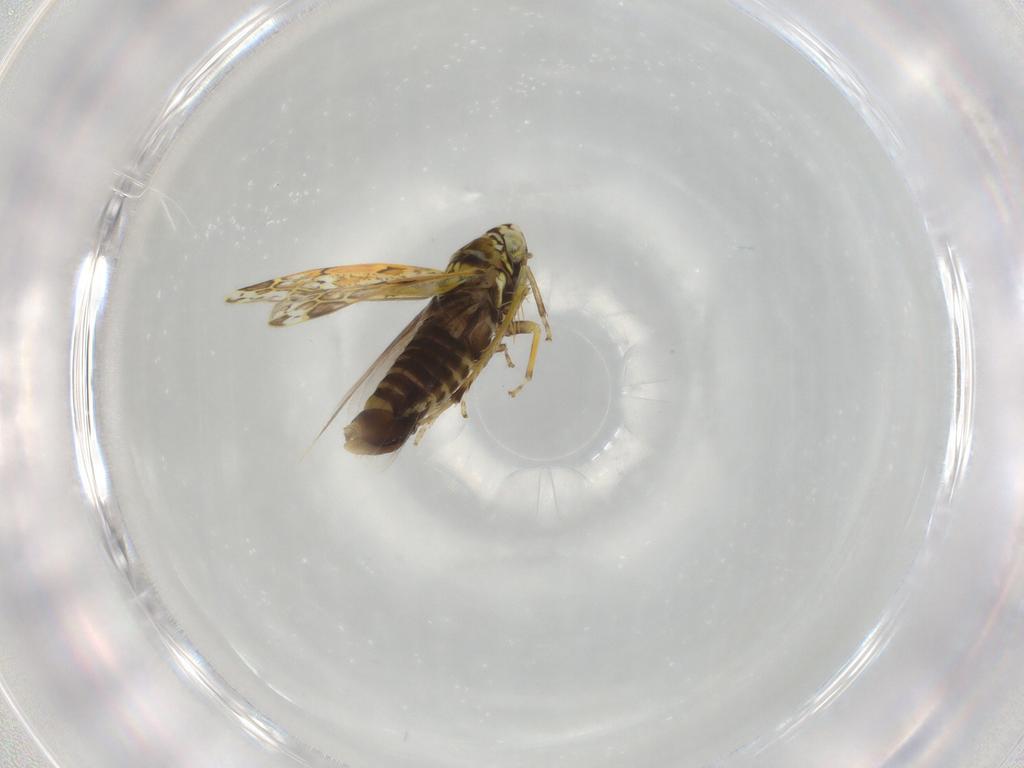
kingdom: Animalia
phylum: Arthropoda
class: Insecta
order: Hemiptera
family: Cicadellidae
